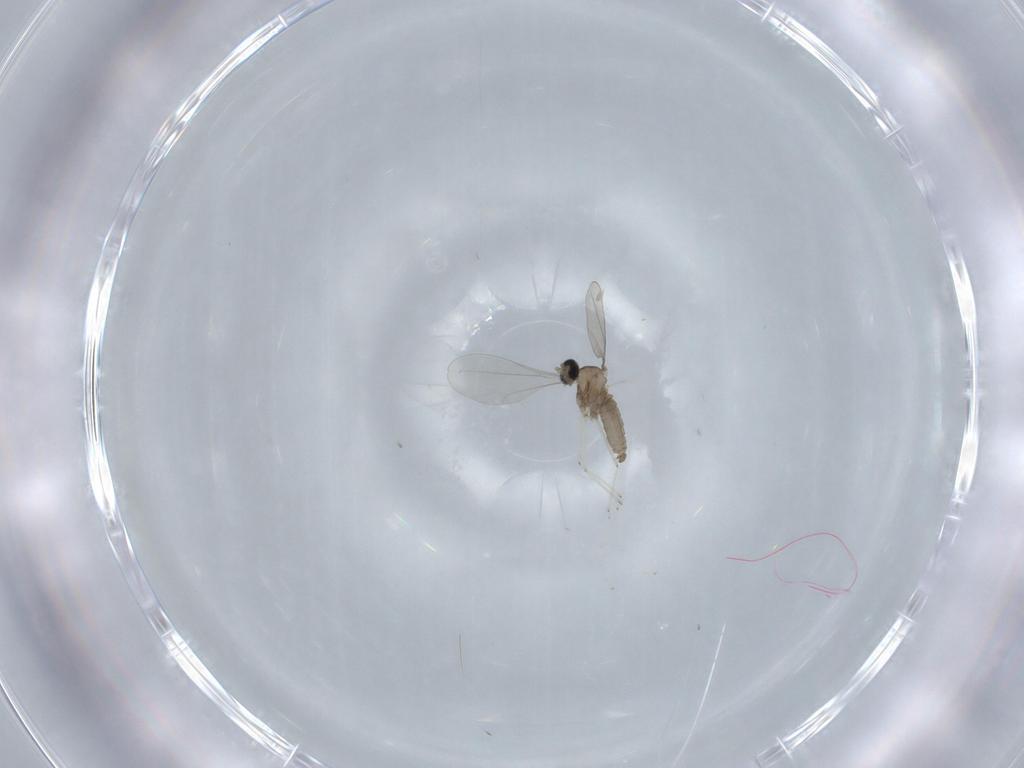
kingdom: Animalia
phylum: Arthropoda
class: Insecta
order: Diptera
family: Cecidomyiidae
